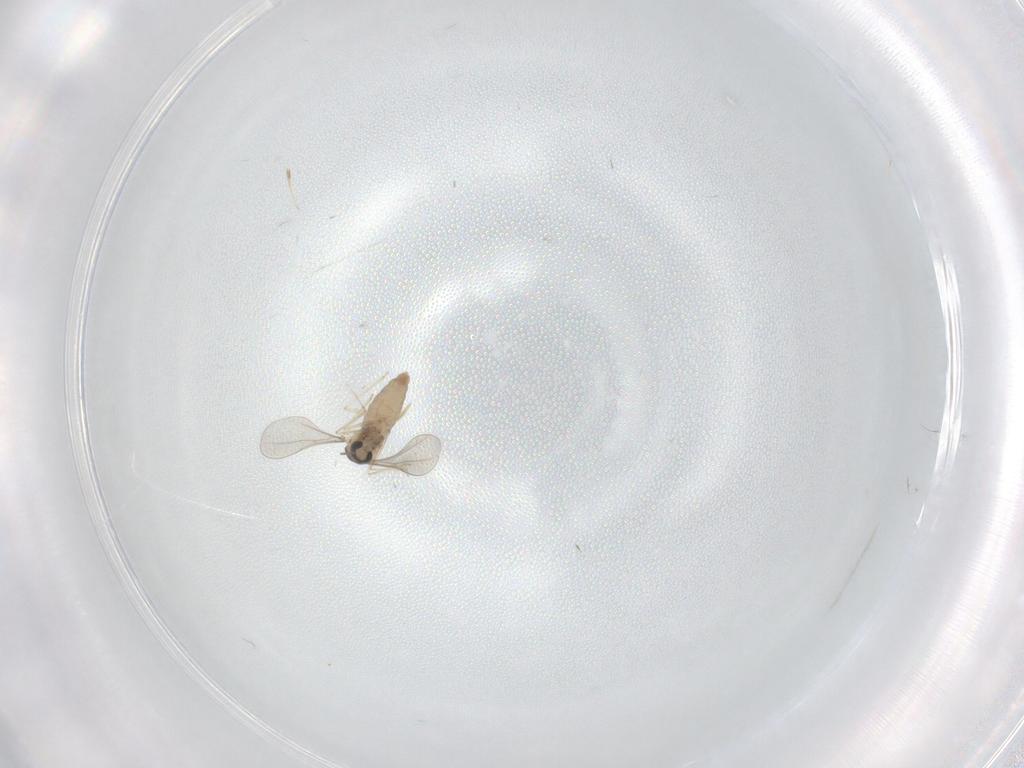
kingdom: Animalia
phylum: Arthropoda
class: Insecta
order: Diptera
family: Cecidomyiidae
